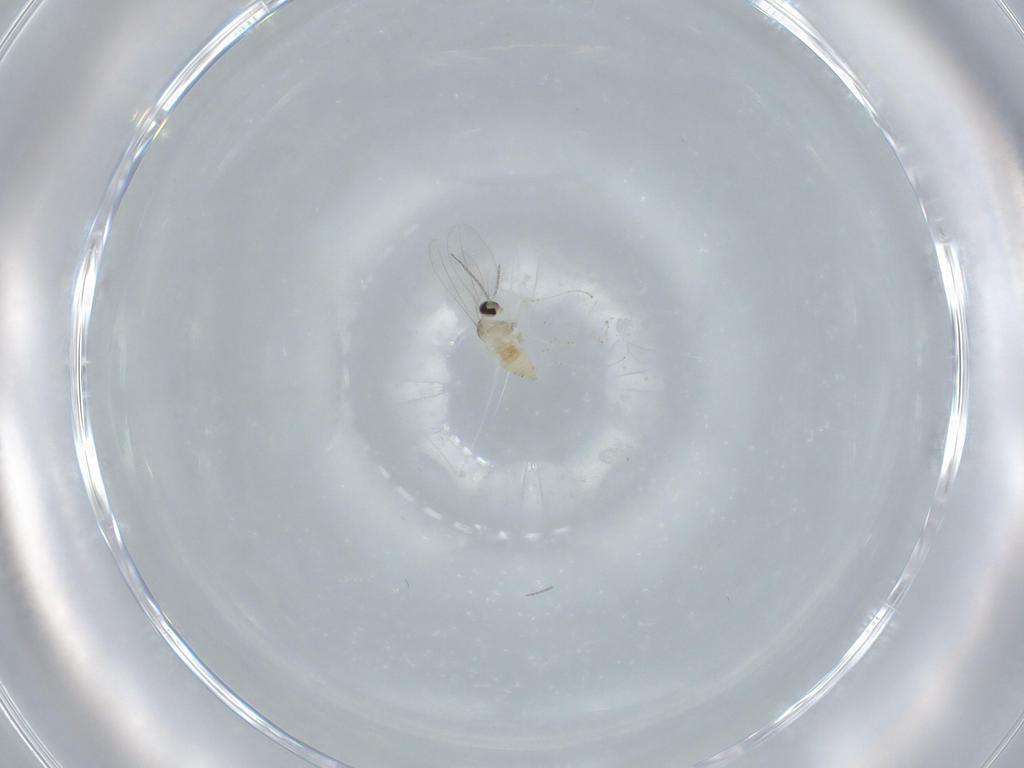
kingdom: Animalia
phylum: Arthropoda
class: Insecta
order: Diptera
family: Cecidomyiidae
